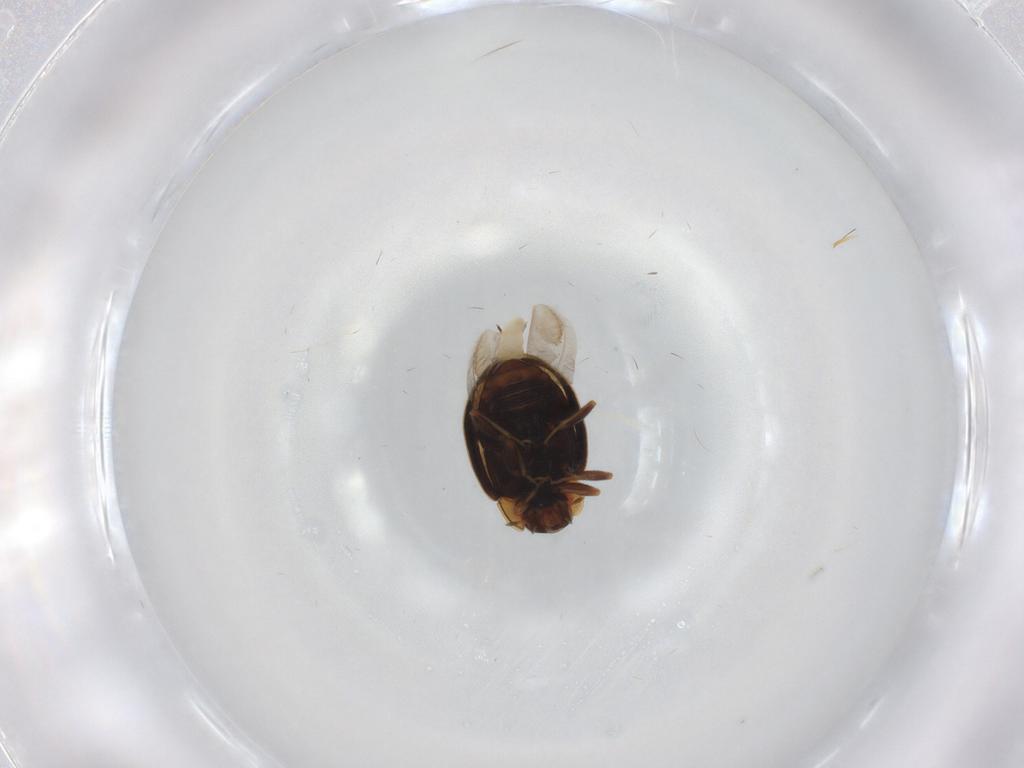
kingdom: Animalia
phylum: Arthropoda
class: Insecta
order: Coleoptera
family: Coccinellidae
